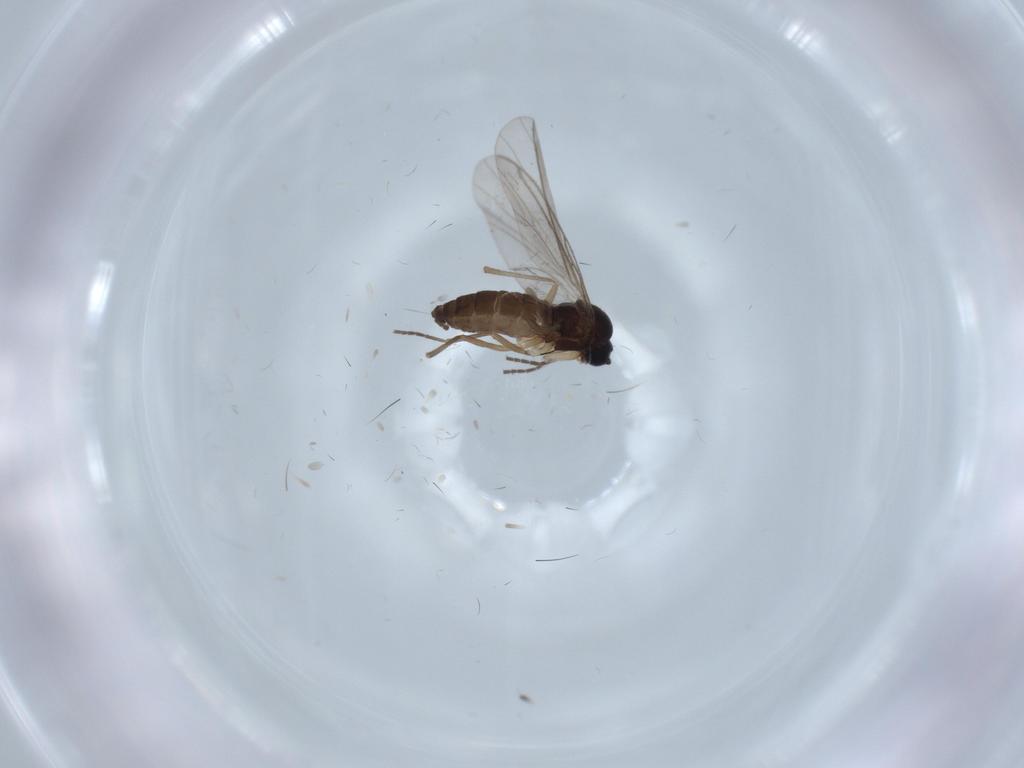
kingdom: Animalia
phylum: Arthropoda
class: Insecta
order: Diptera
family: Sciaridae
